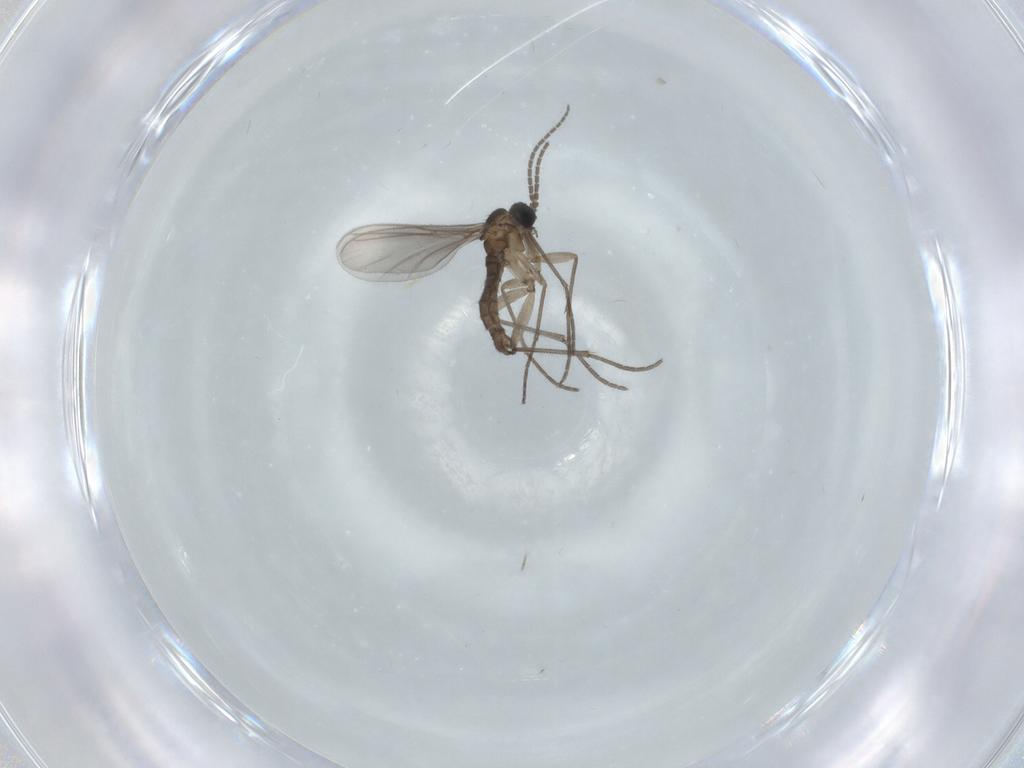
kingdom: Animalia
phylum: Arthropoda
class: Insecta
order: Diptera
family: Sciaridae
